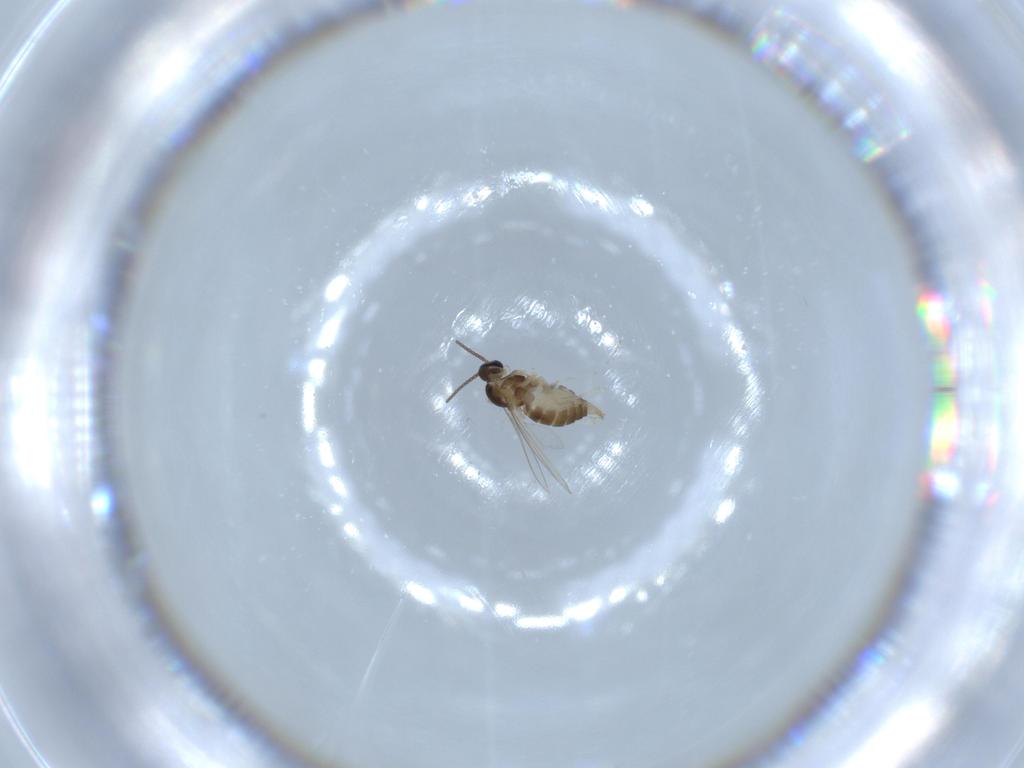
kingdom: Animalia
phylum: Arthropoda
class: Insecta
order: Diptera
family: Cecidomyiidae
